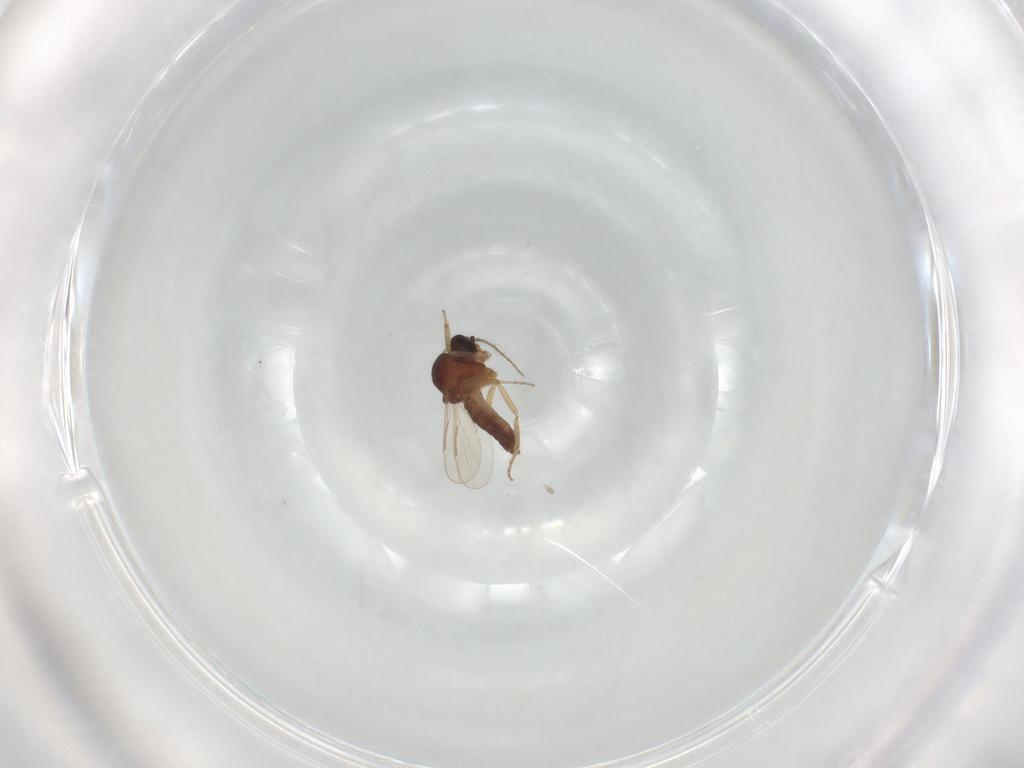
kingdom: Animalia
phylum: Arthropoda
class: Insecta
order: Diptera
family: Ceratopogonidae
